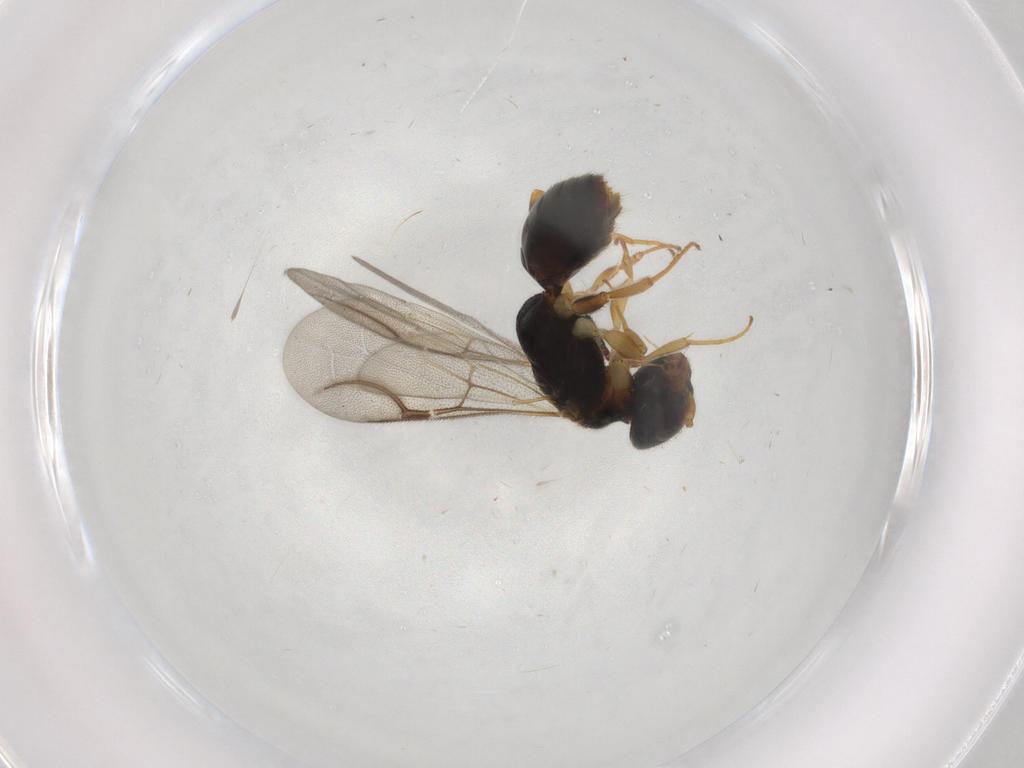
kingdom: Animalia
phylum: Arthropoda
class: Insecta
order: Hymenoptera
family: Bethylidae
